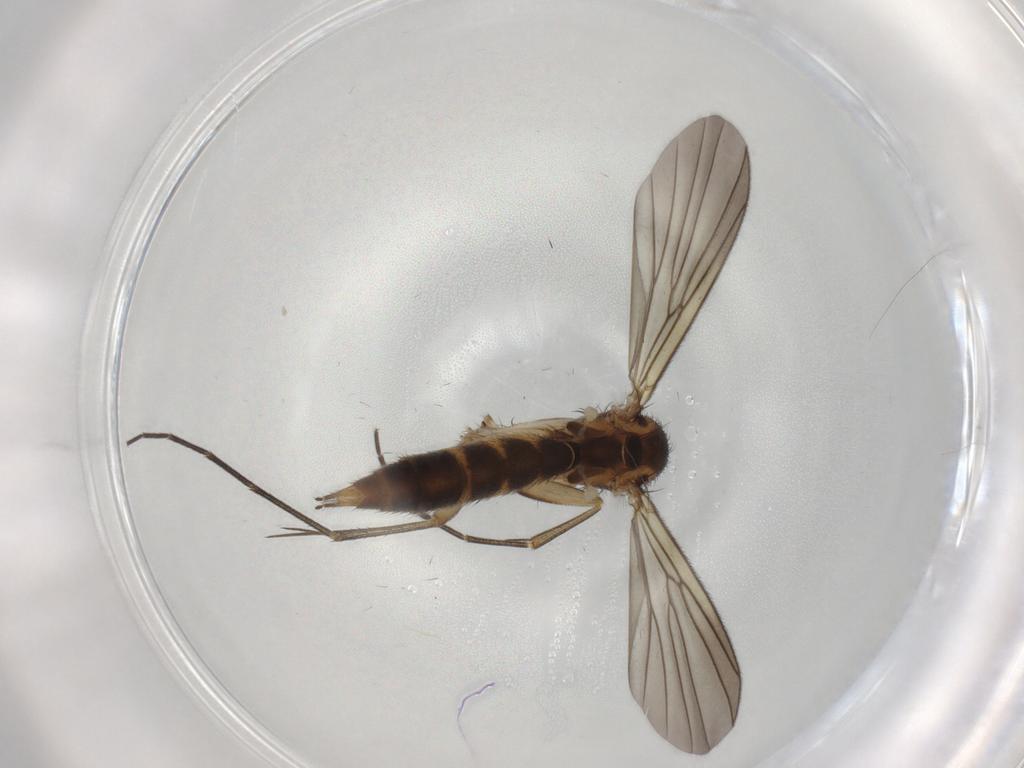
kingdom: Animalia
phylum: Arthropoda
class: Insecta
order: Diptera
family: Mycetophilidae
